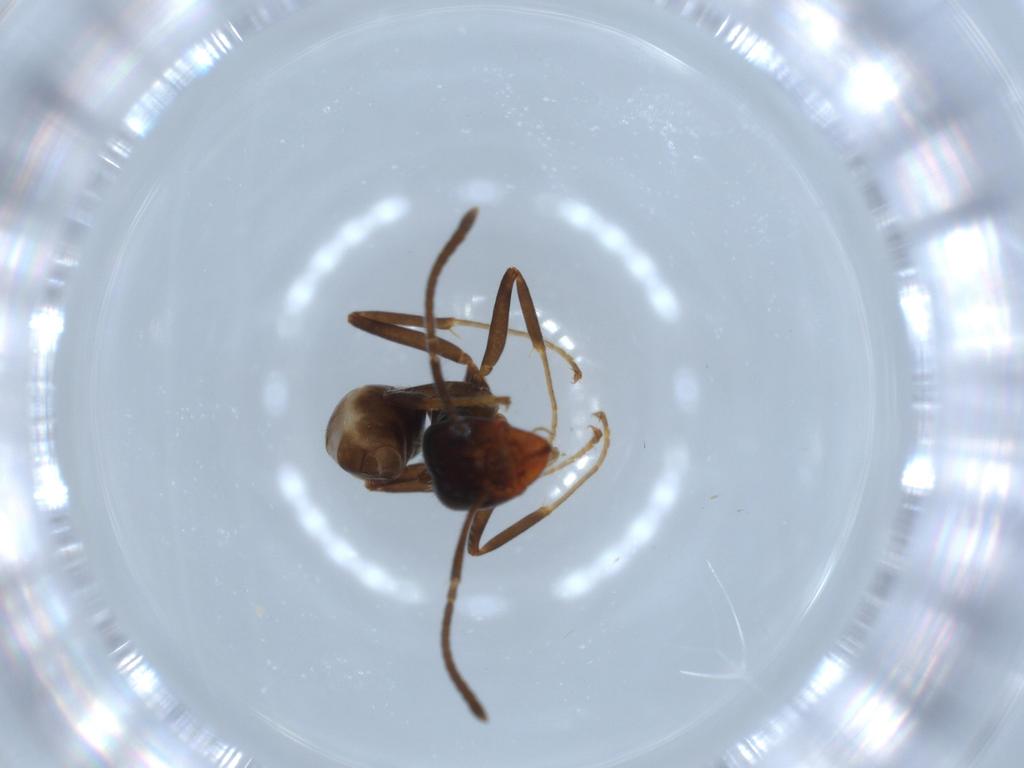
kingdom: Animalia
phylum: Arthropoda
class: Insecta
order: Hymenoptera
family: Formicidae
